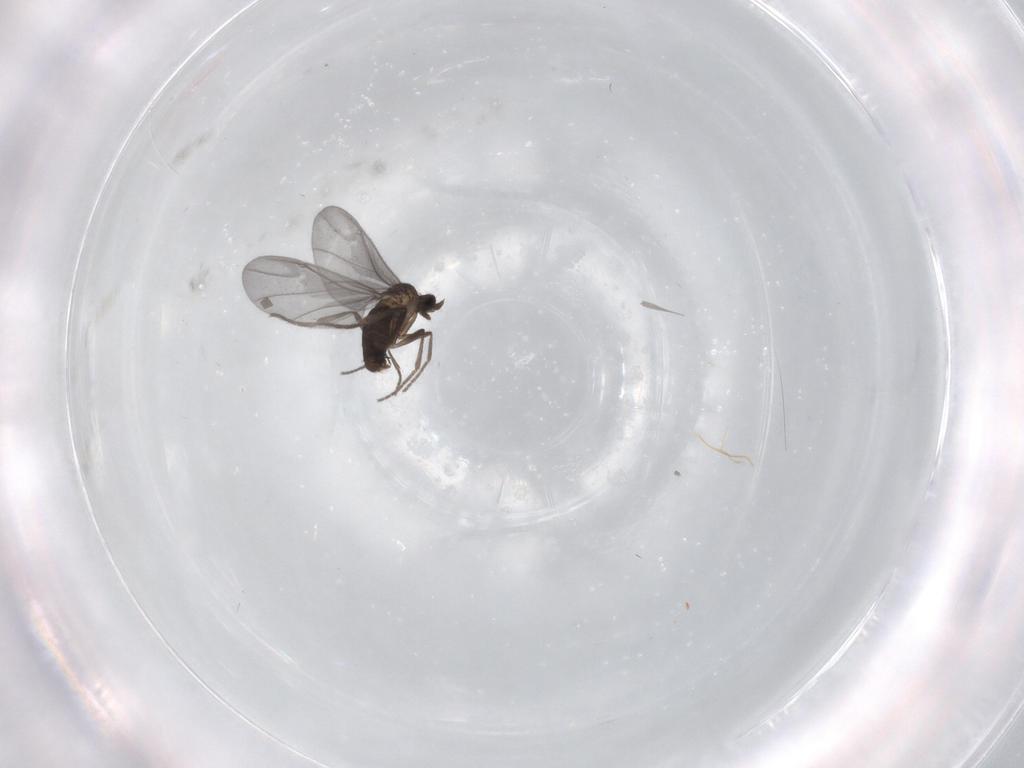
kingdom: Animalia
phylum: Arthropoda
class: Insecta
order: Diptera
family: Phoridae
